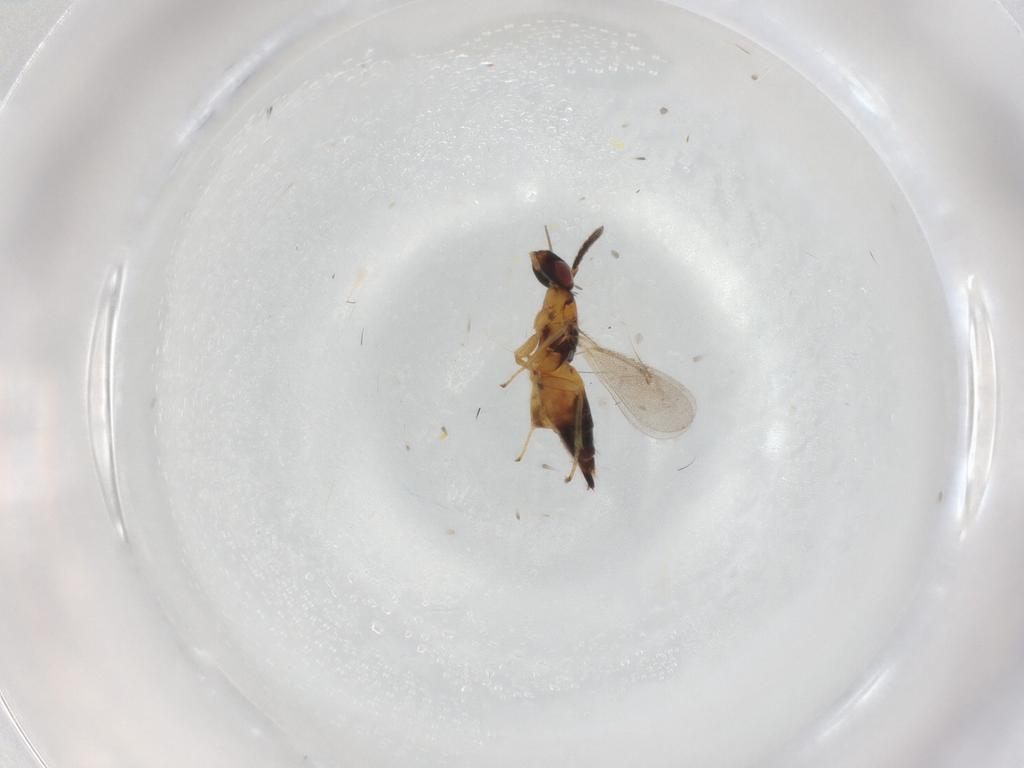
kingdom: Animalia
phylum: Arthropoda
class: Insecta
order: Hymenoptera
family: Eulophidae
